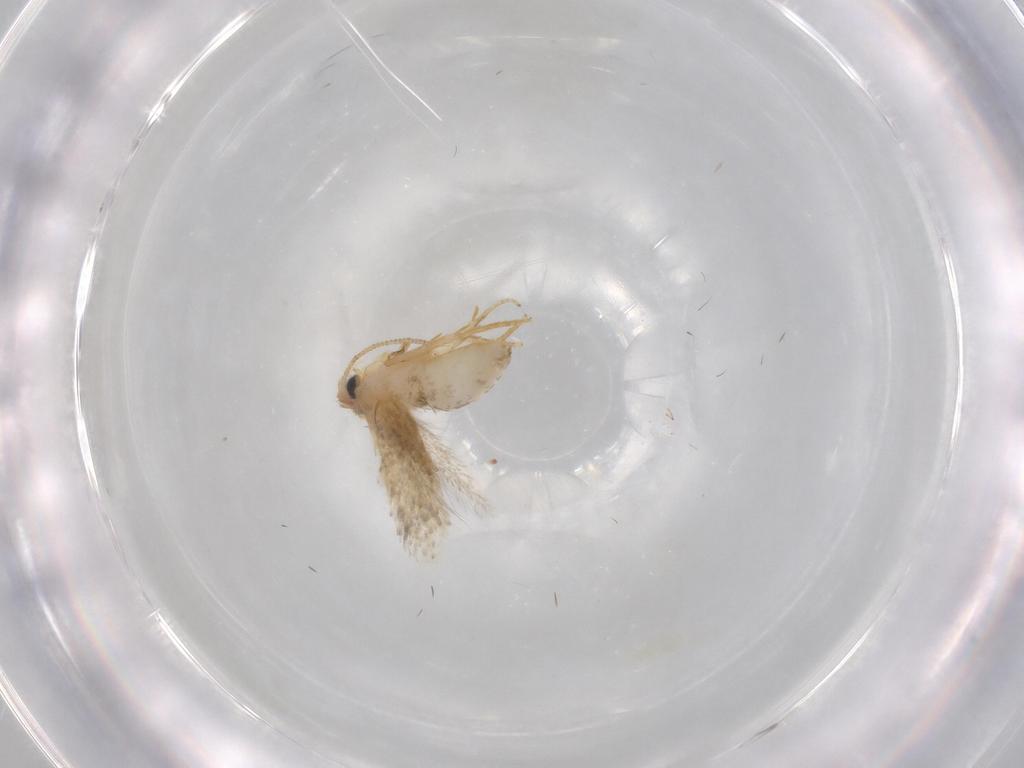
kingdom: Animalia
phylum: Arthropoda
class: Insecta
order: Lepidoptera
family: Nepticulidae
